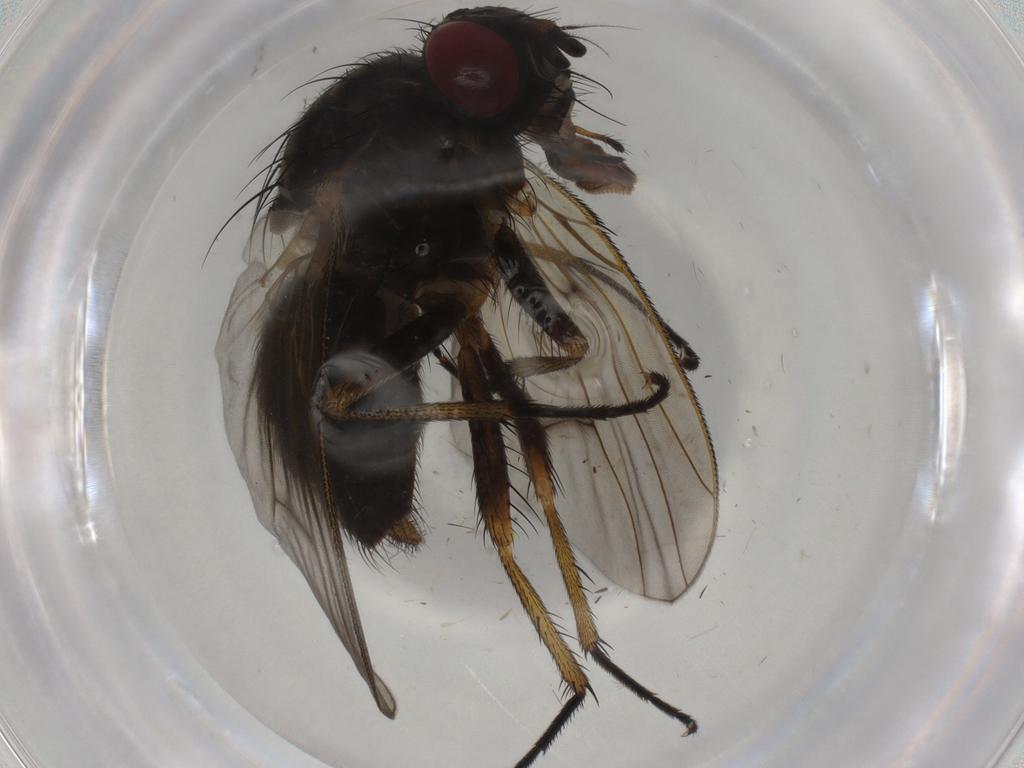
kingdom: Animalia
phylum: Arthropoda
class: Insecta
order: Diptera
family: Muscidae
